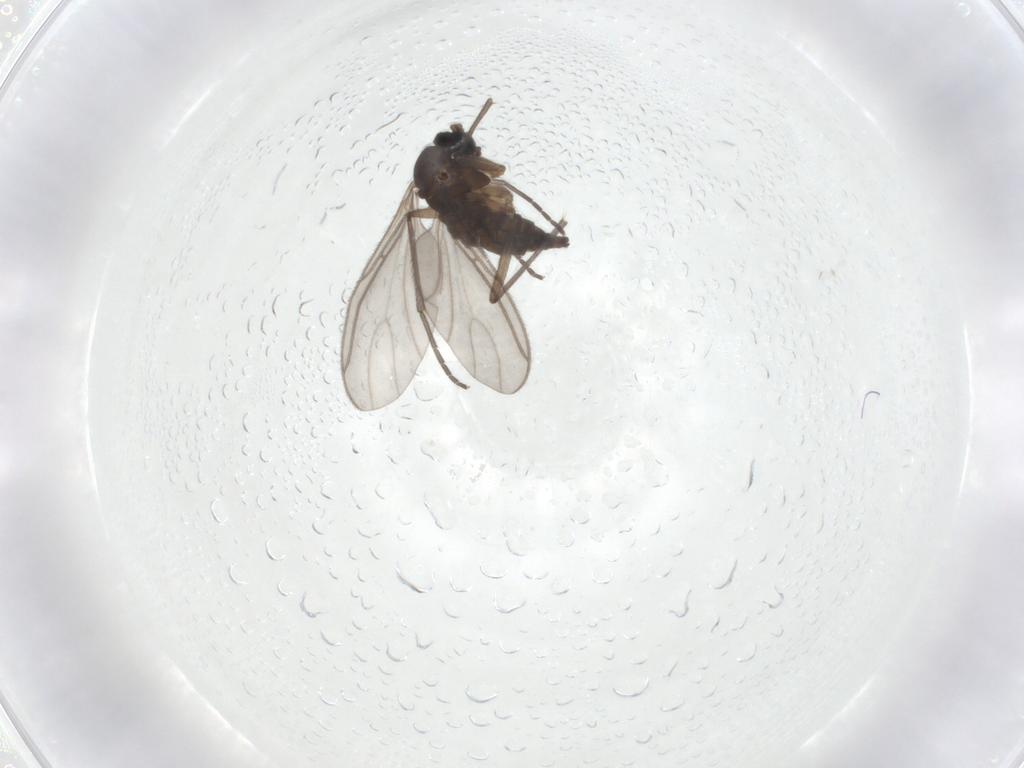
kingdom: Animalia
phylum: Arthropoda
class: Insecta
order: Diptera
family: Sciaridae
